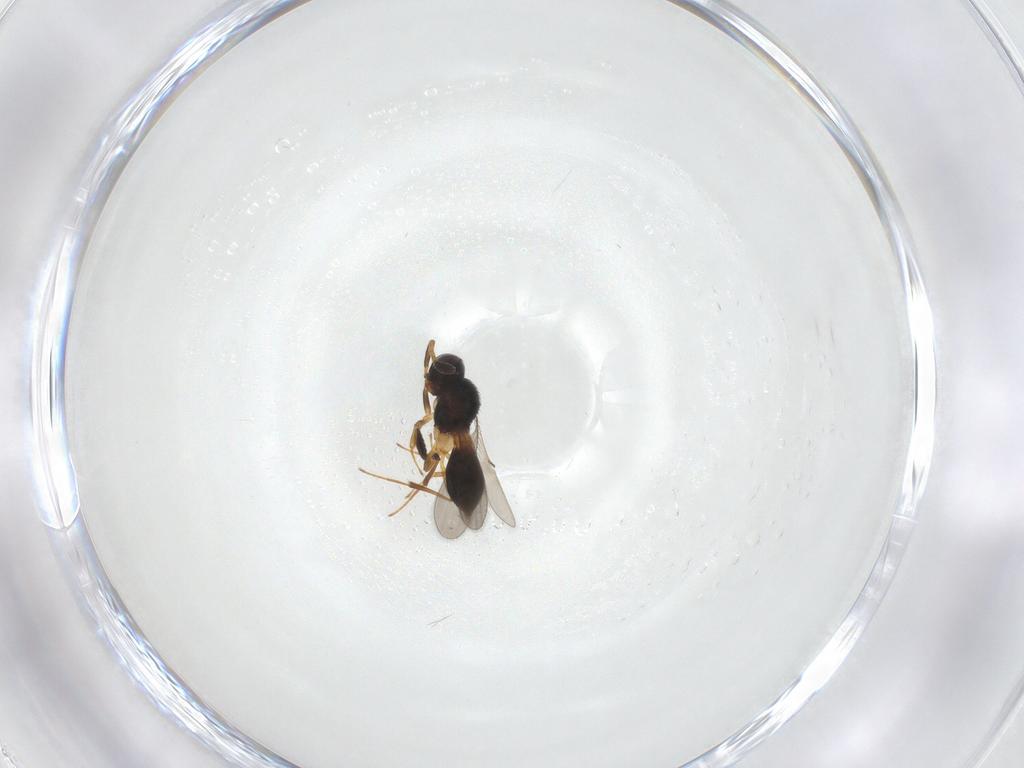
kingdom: Animalia
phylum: Arthropoda
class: Insecta
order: Hymenoptera
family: Scelionidae
